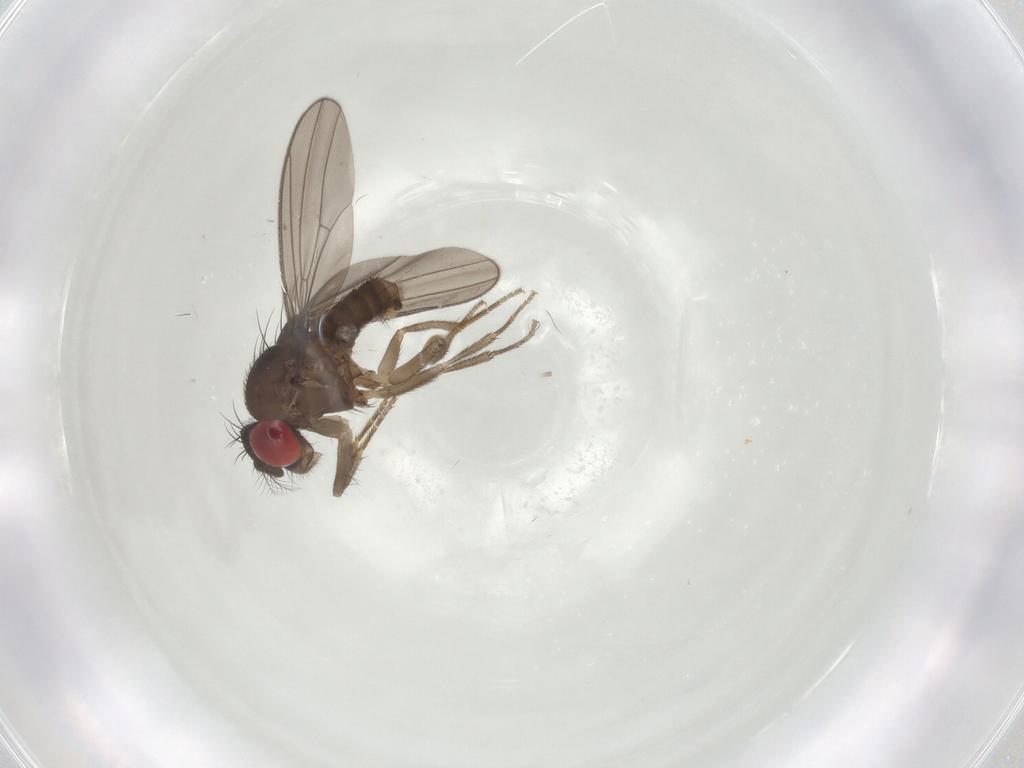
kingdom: Animalia
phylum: Arthropoda
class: Insecta
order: Diptera
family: Drosophilidae
